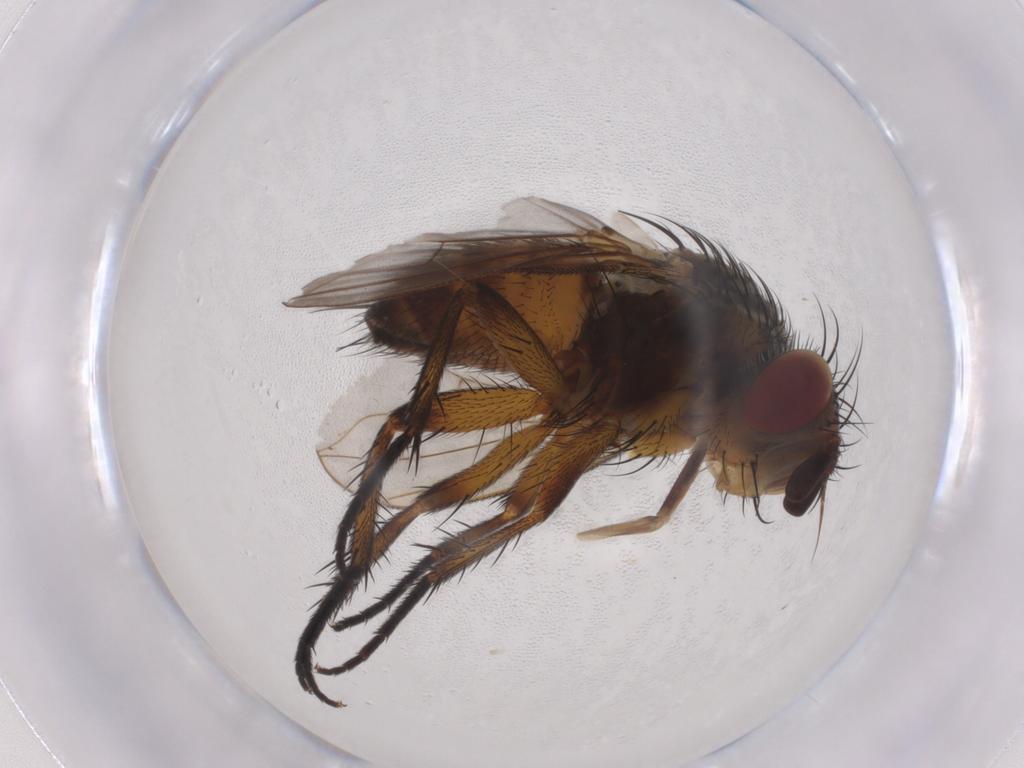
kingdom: Animalia
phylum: Arthropoda
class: Insecta
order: Diptera
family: Tachinidae
